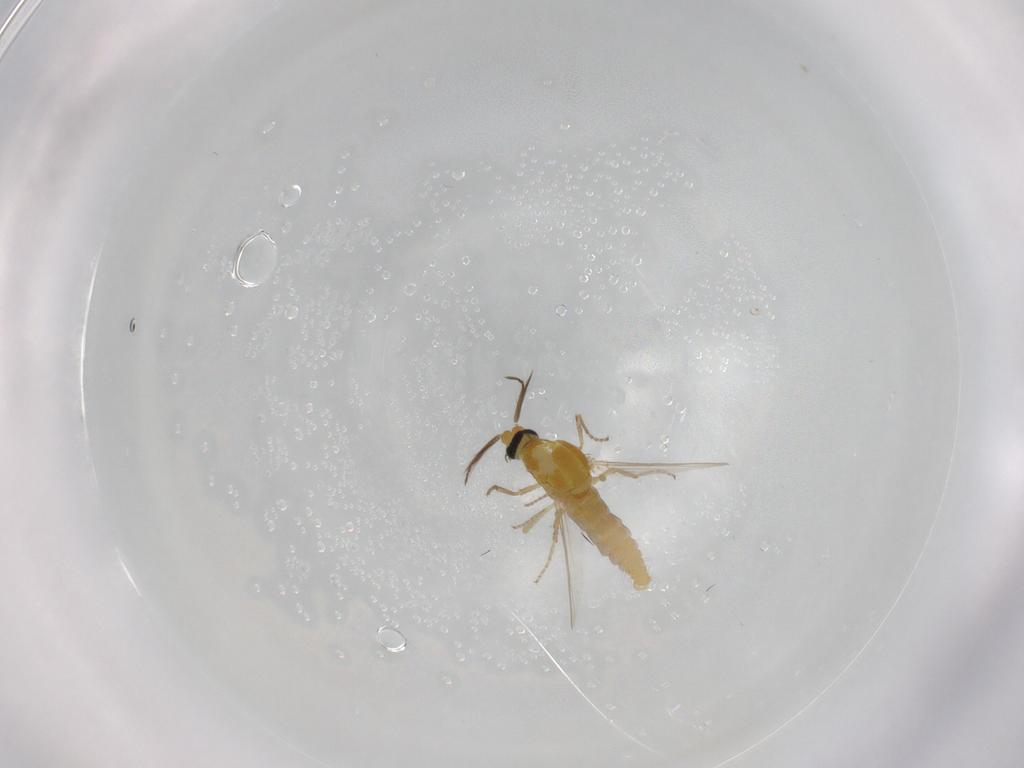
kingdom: Animalia
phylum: Arthropoda
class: Insecta
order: Diptera
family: Ceratopogonidae
